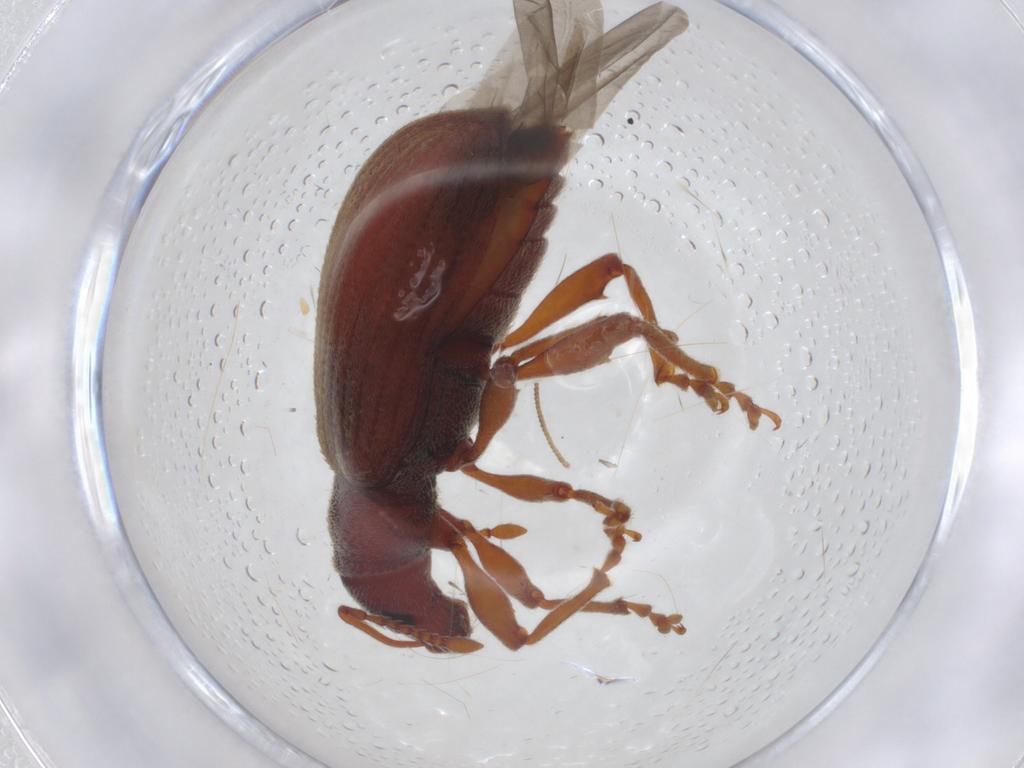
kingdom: Animalia
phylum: Arthropoda
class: Insecta
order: Coleoptera
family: Curculionidae
